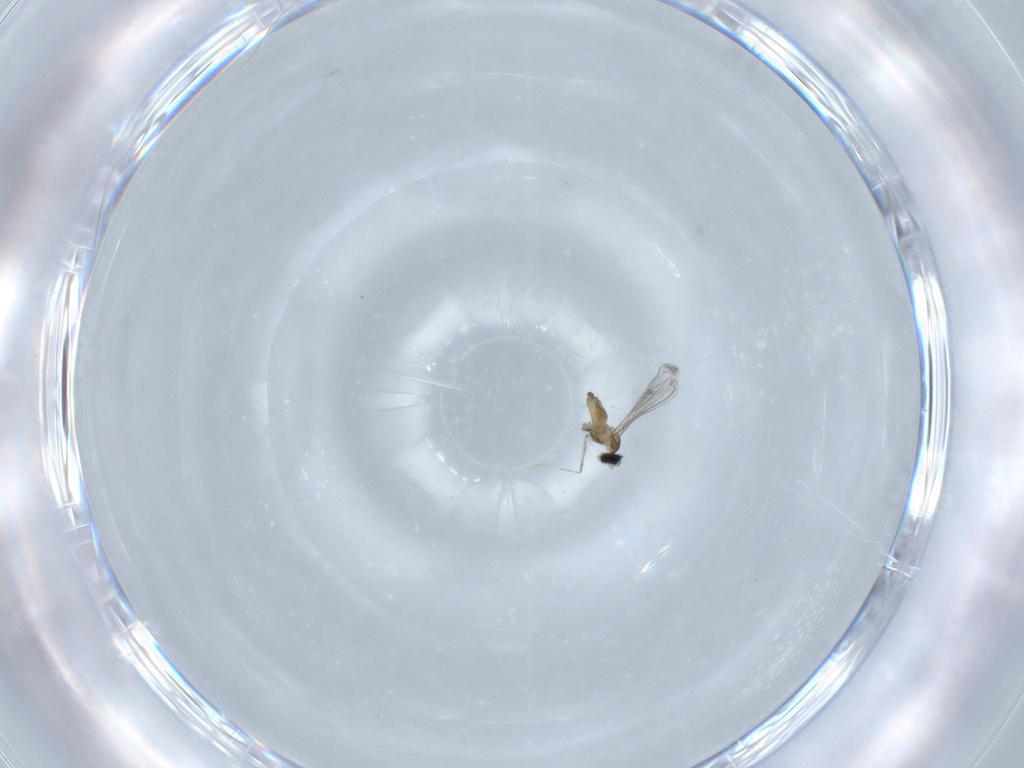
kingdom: Animalia
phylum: Arthropoda
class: Insecta
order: Diptera
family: Cecidomyiidae
